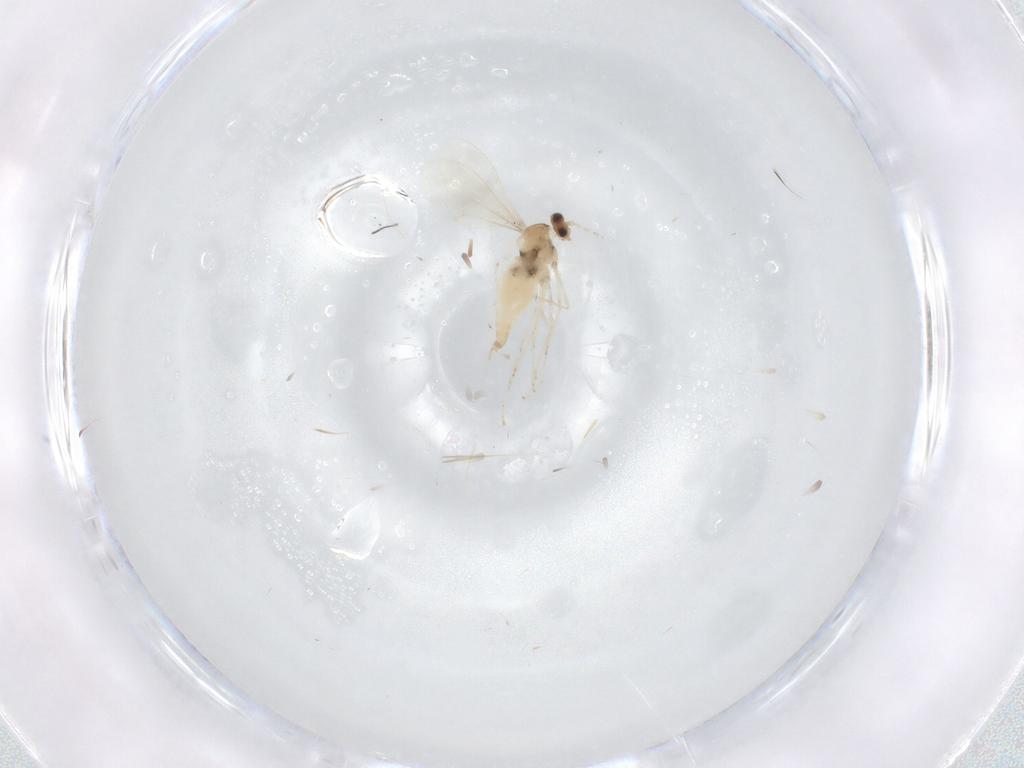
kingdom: Animalia
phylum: Arthropoda
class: Insecta
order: Diptera
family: Cecidomyiidae
